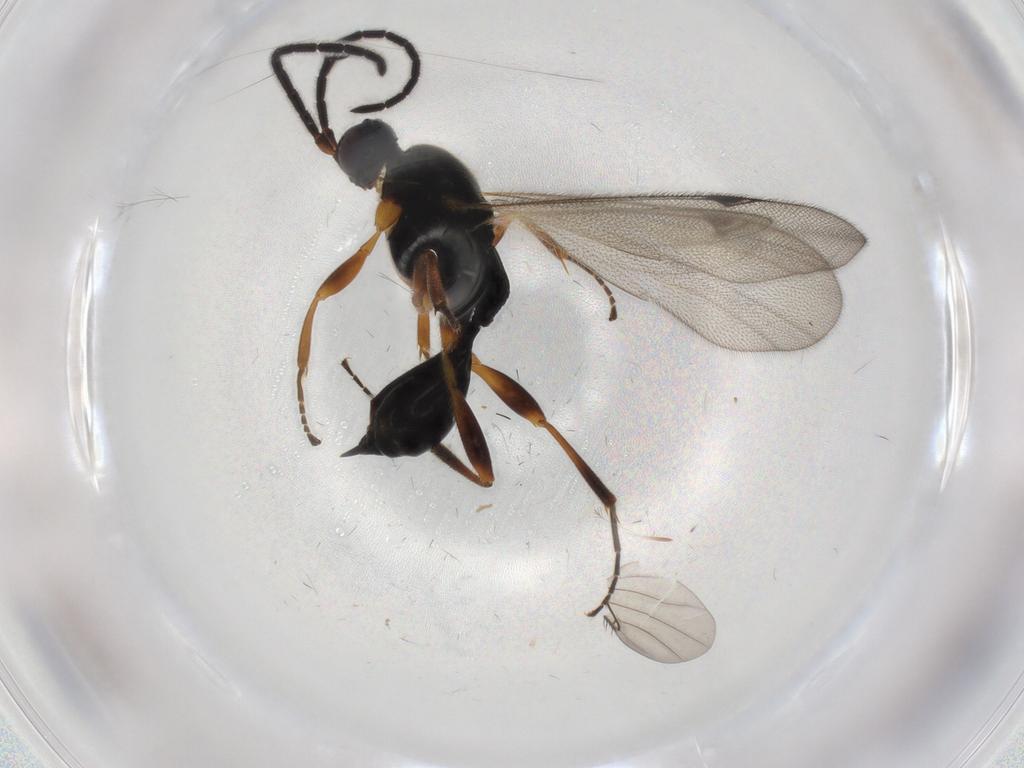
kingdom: Animalia
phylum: Arthropoda
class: Insecta
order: Hymenoptera
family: Proctotrupidae
